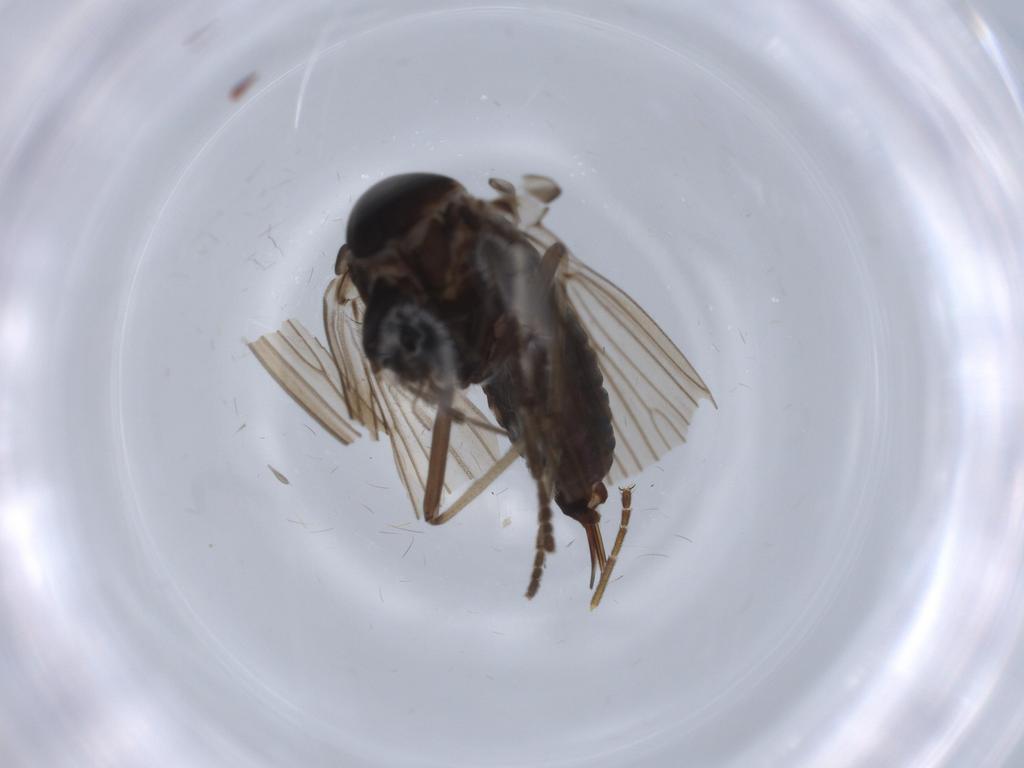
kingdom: Animalia
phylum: Arthropoda
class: Insecta
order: Diptera
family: Psychodidae
